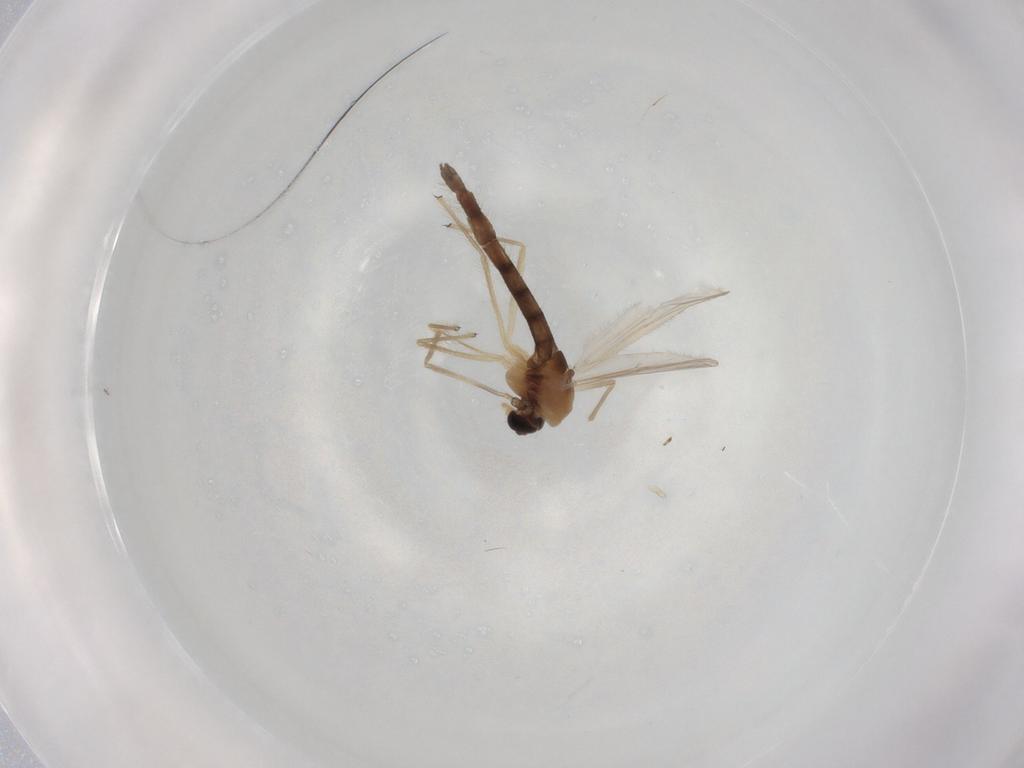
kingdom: Animalia
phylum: Arthropoda
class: Insecta
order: Diptera
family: Chironomidae
